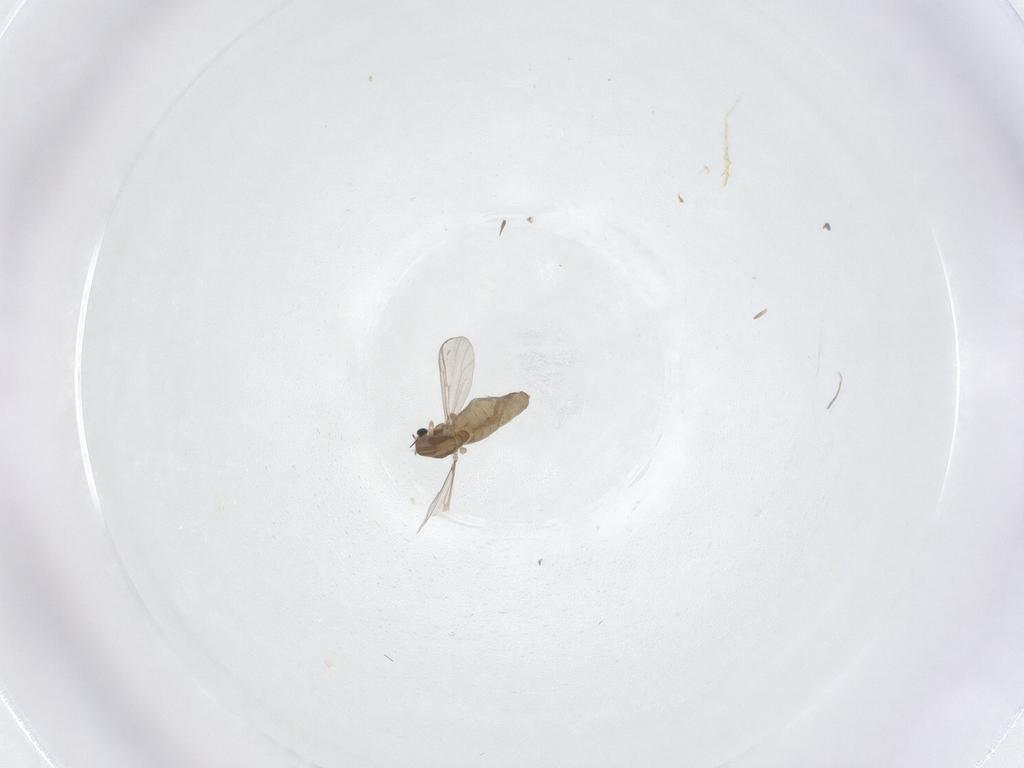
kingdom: Animalia
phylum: Arthropoda
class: Insecta
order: Diptera
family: Chironomidae
